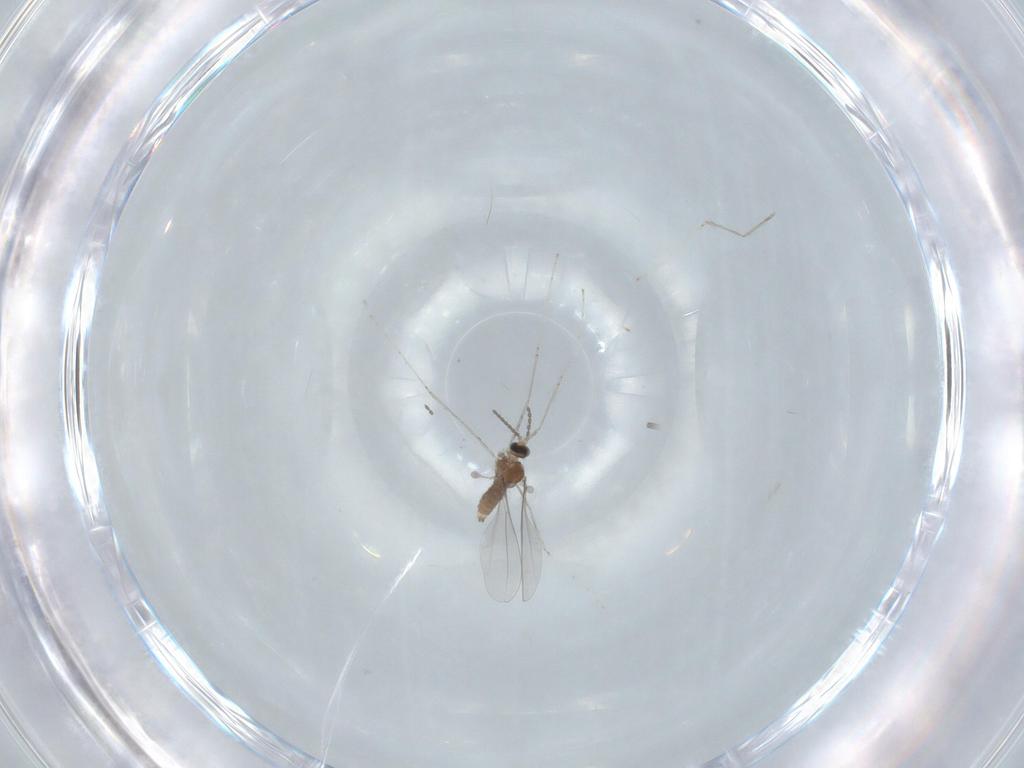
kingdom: Animalia
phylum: Arthropoda
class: Insecta
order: Diptera
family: Cecidomyiidae
